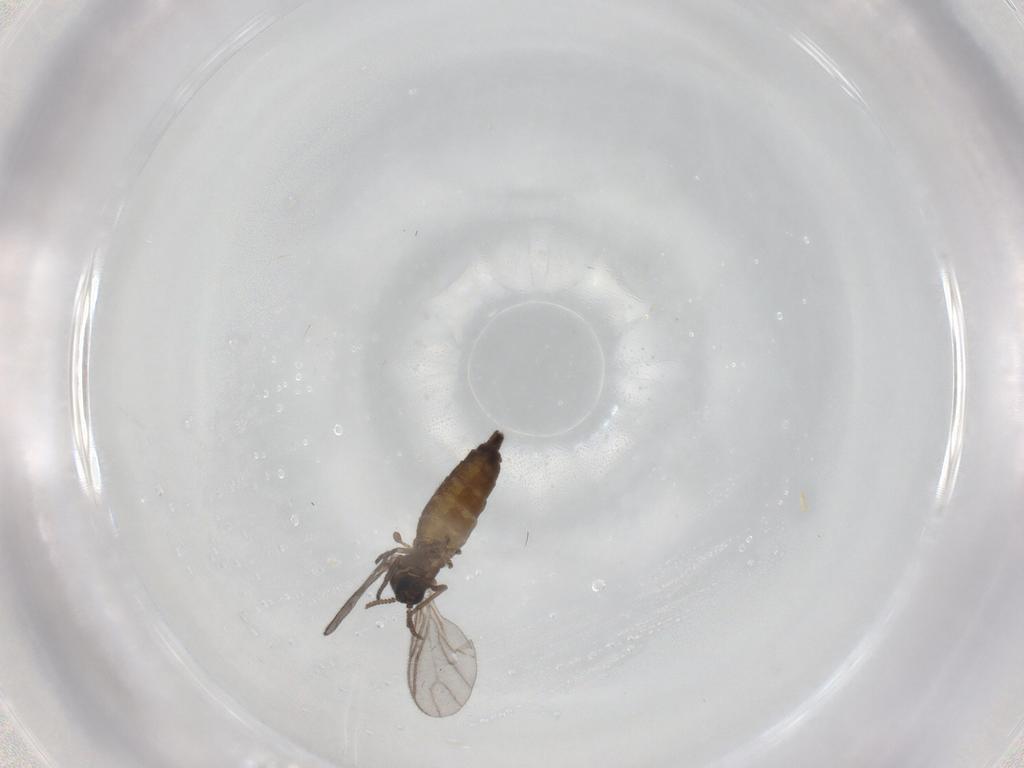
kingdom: Animalia
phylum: Arthropoda
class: Insecta
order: Diptera
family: Sciaridae
